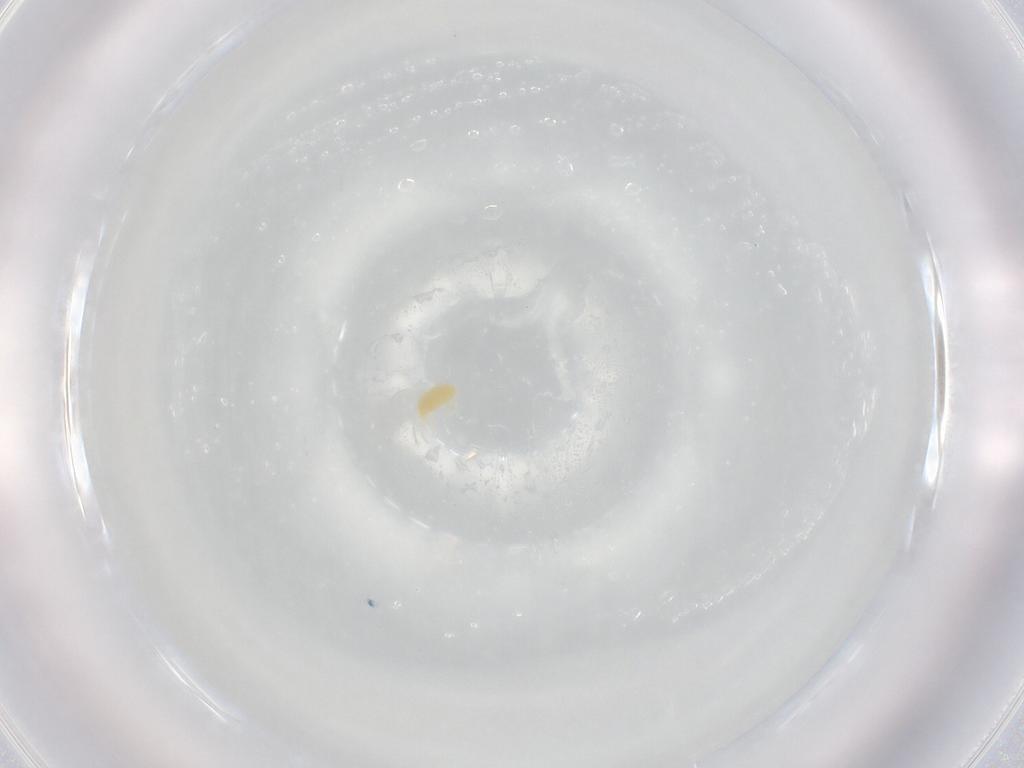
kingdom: Animalia
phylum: Arthropoda
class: Arachnida
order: Trombidiformes
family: Tetranychidae
